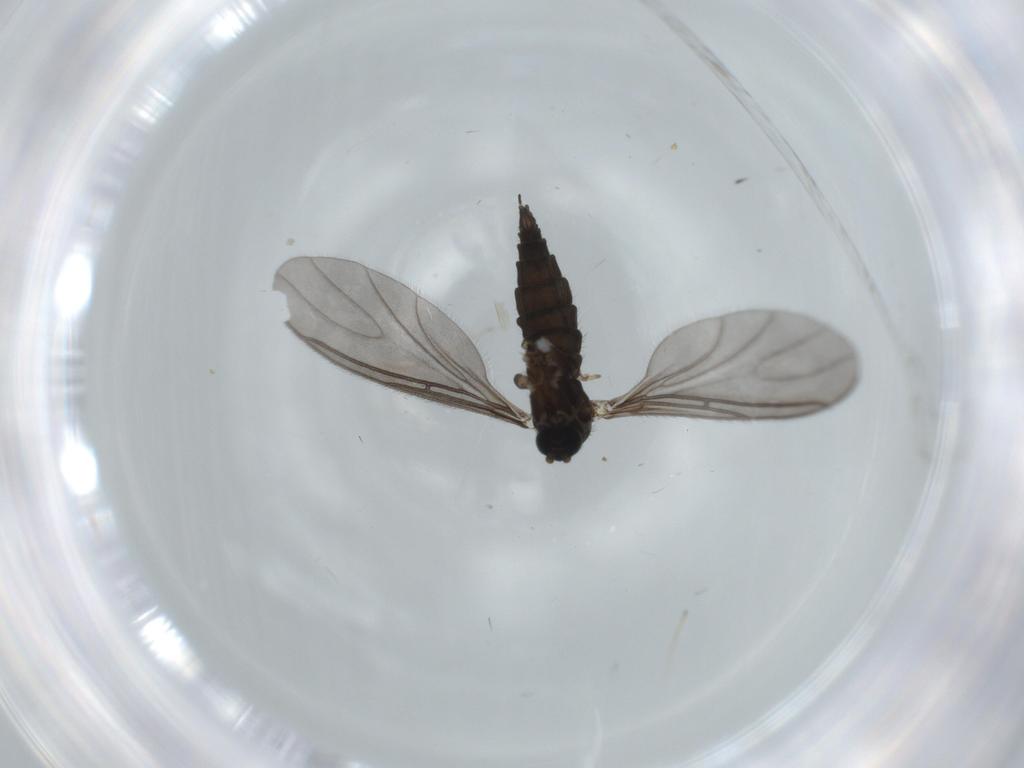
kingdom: Animalia
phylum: Arthropoda
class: Insecta
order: Diptera
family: Sciaridae
